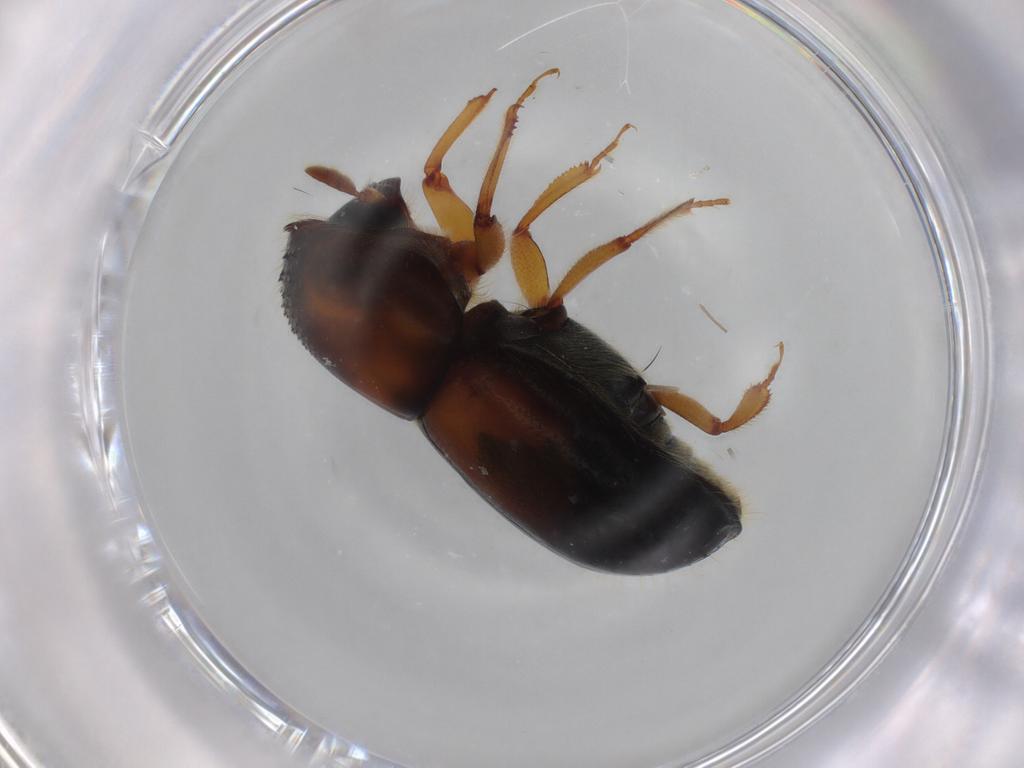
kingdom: Animalia
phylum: Arthropoda
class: Insecta
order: Coleoptera
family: Curculionidae
